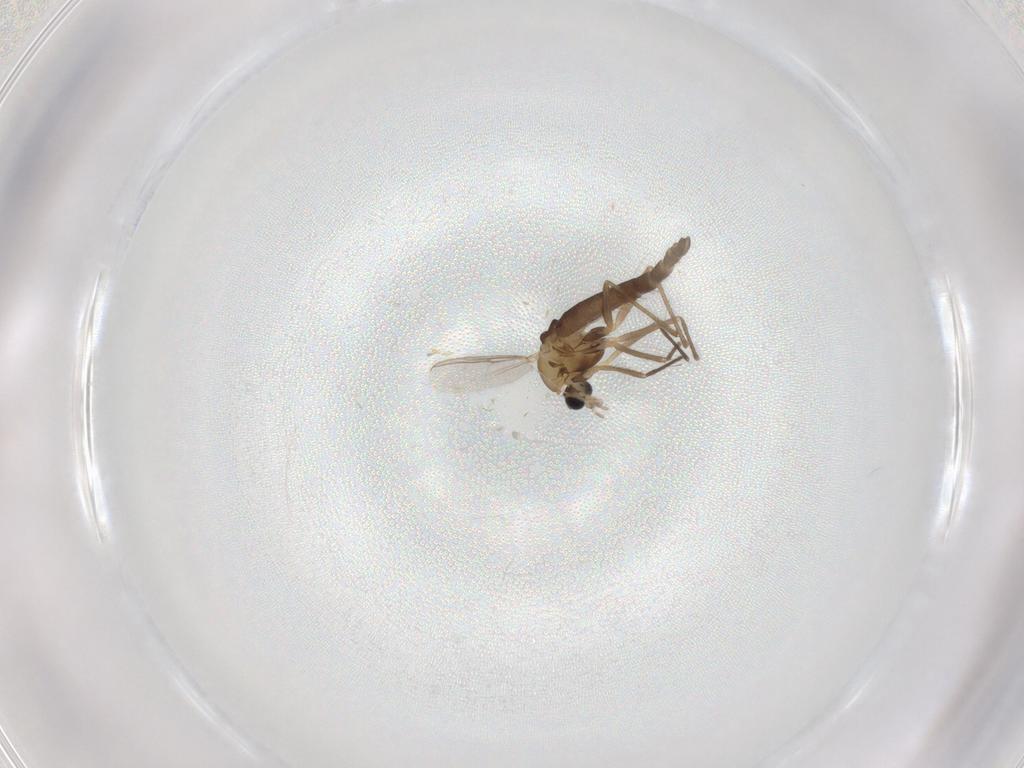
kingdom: Animalia
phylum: Arthropoda
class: Insecta
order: Diptera
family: Chironomidae
